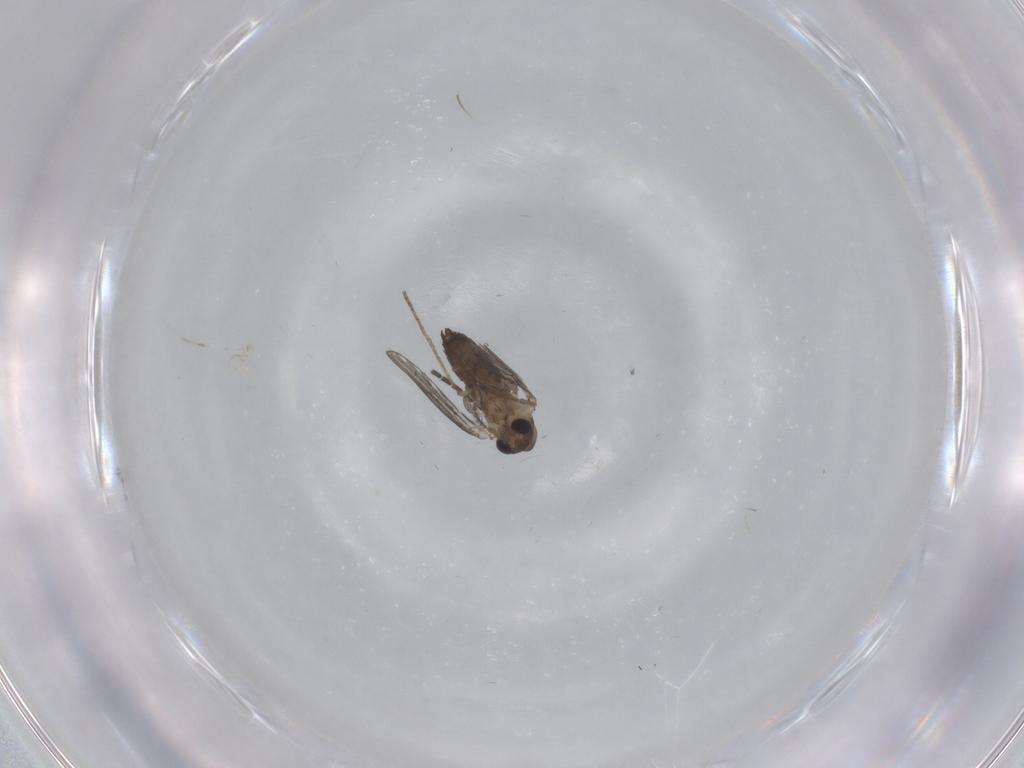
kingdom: Animalia
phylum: Arthropoda
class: Insecta
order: Diptera
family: Psychodidae
